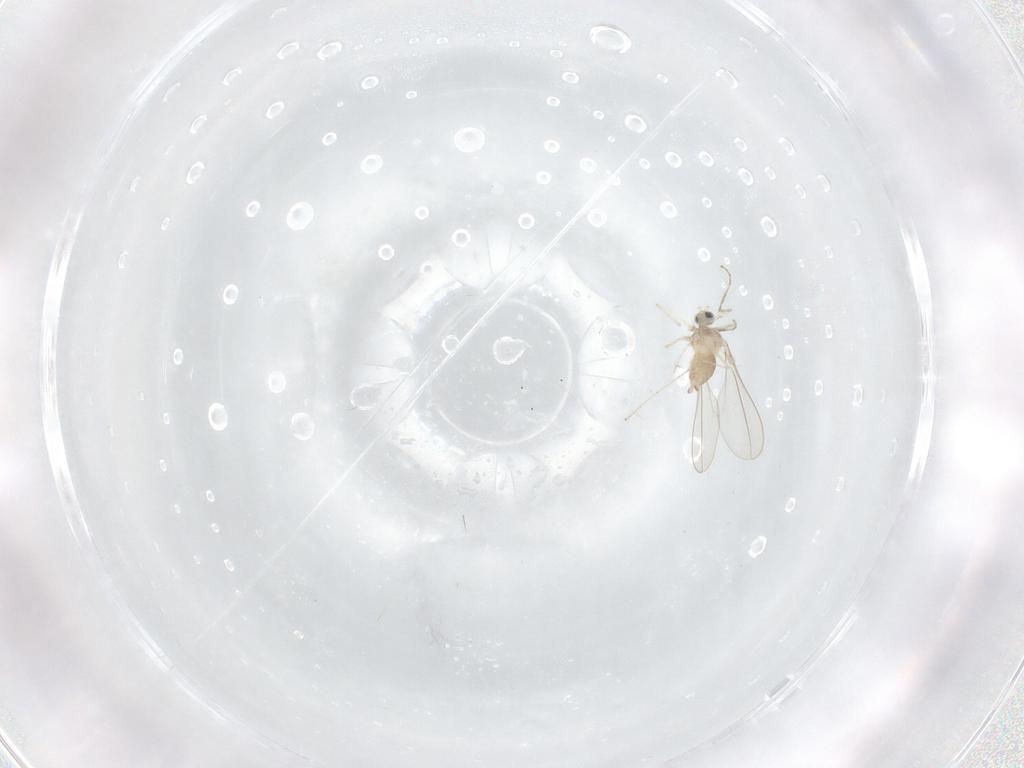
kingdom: Animalia
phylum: Arthropoda
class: Insecta
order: Diptera
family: Cecidomyiidae
